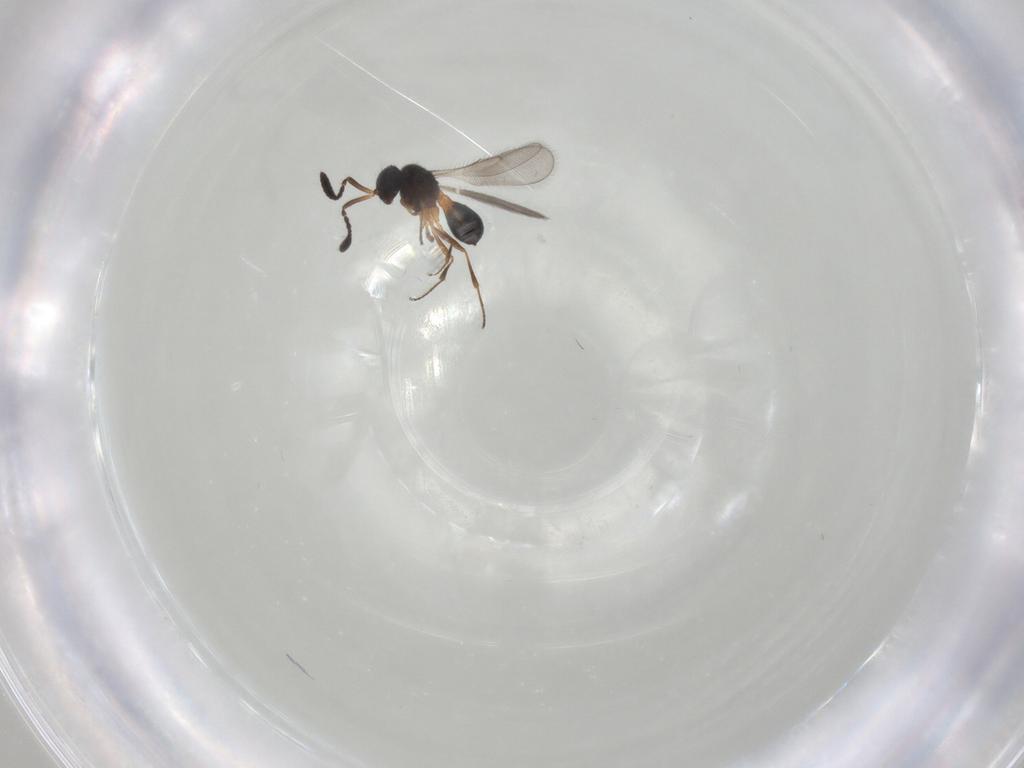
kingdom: Animalia
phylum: Arthropoda
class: Insecta
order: Hymenoptera
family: Scelionidae
